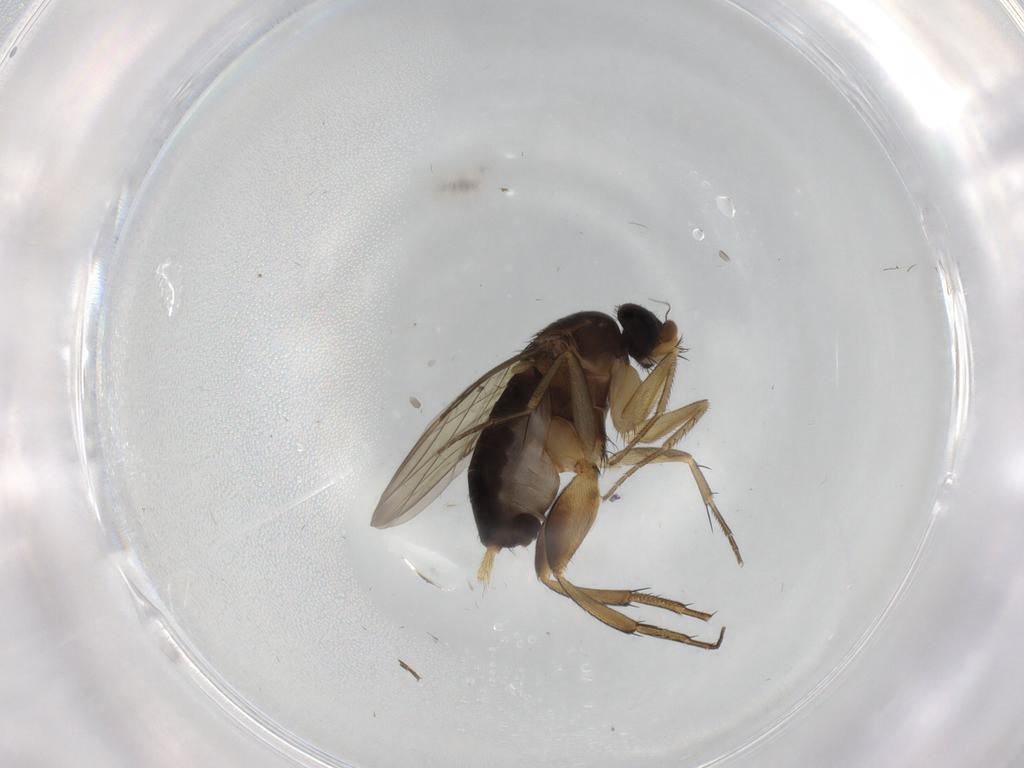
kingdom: Animalia
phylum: Arthropoda
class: Insecta
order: Diptera
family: Phoridae
